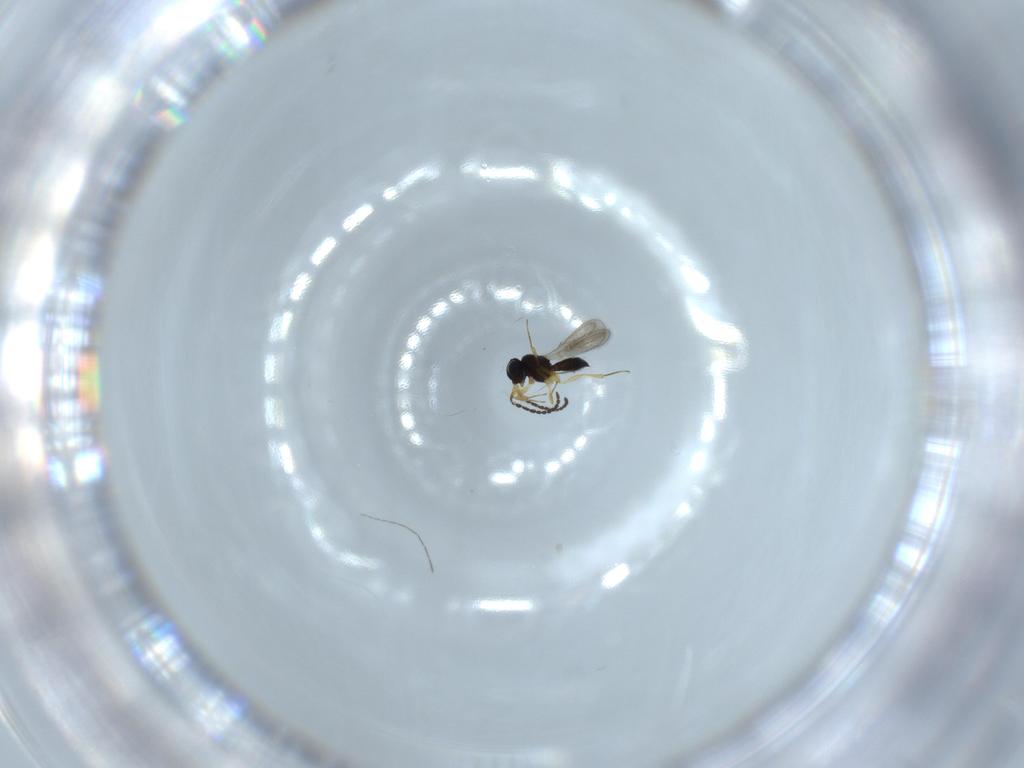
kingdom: Animalia
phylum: Arthropoda
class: Insecta
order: Hymenoptera
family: Scelionidae
